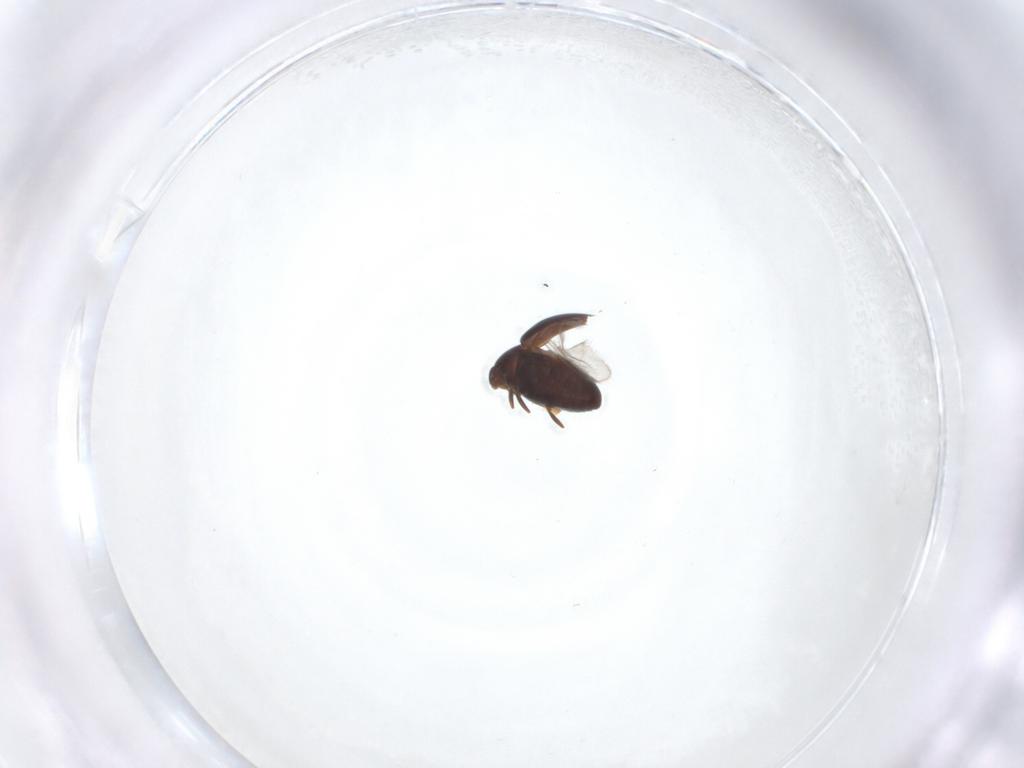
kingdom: Animalia
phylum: Arthropoda
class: Insecta
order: Coleoptera
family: Corylophidae
